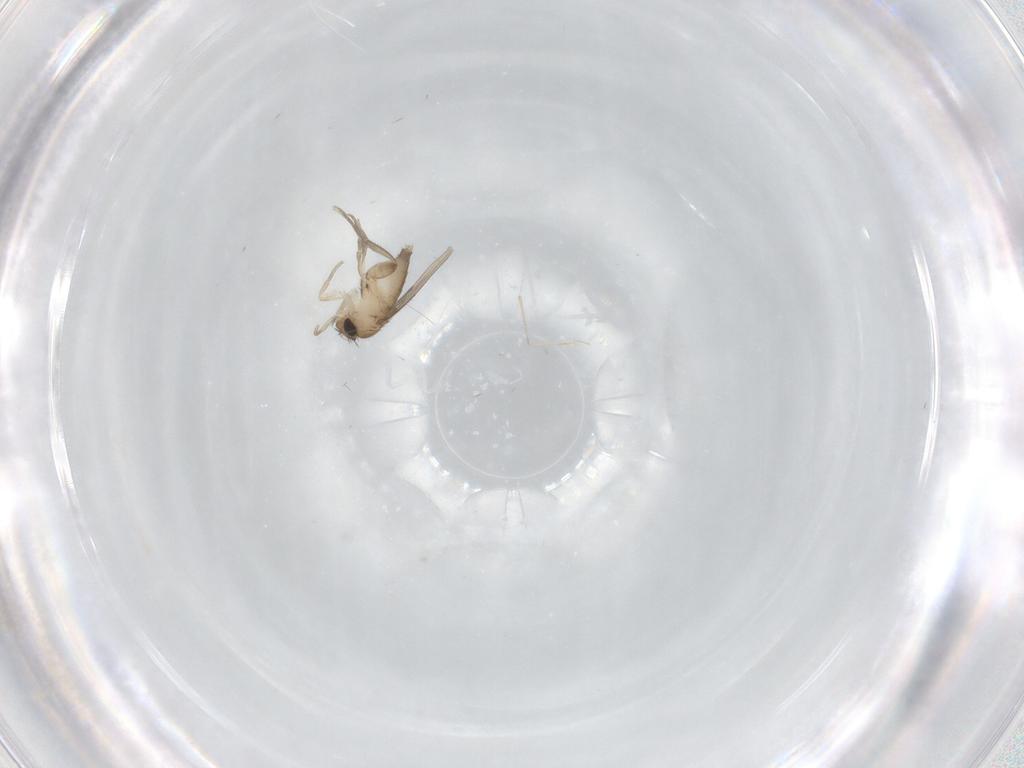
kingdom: Animalia
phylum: Arthropoda
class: Insecta
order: Diptera
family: Phoridae
